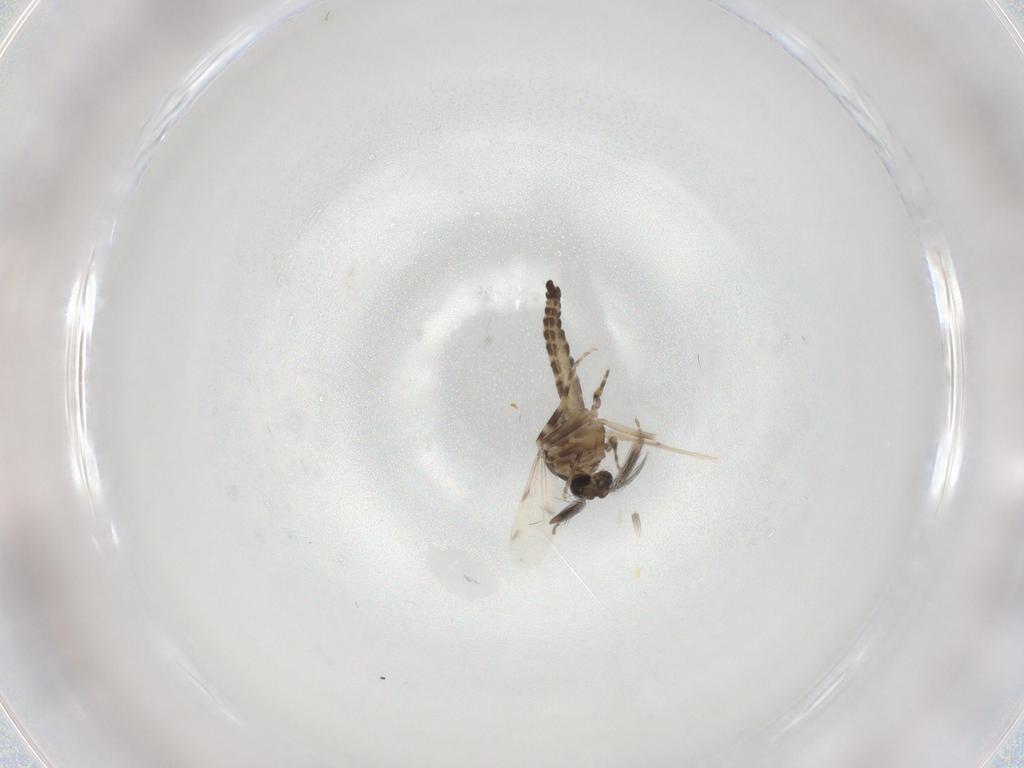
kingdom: Animalia
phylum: Arthropoda
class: Insecta
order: Diptera
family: Ceratopogonidae
